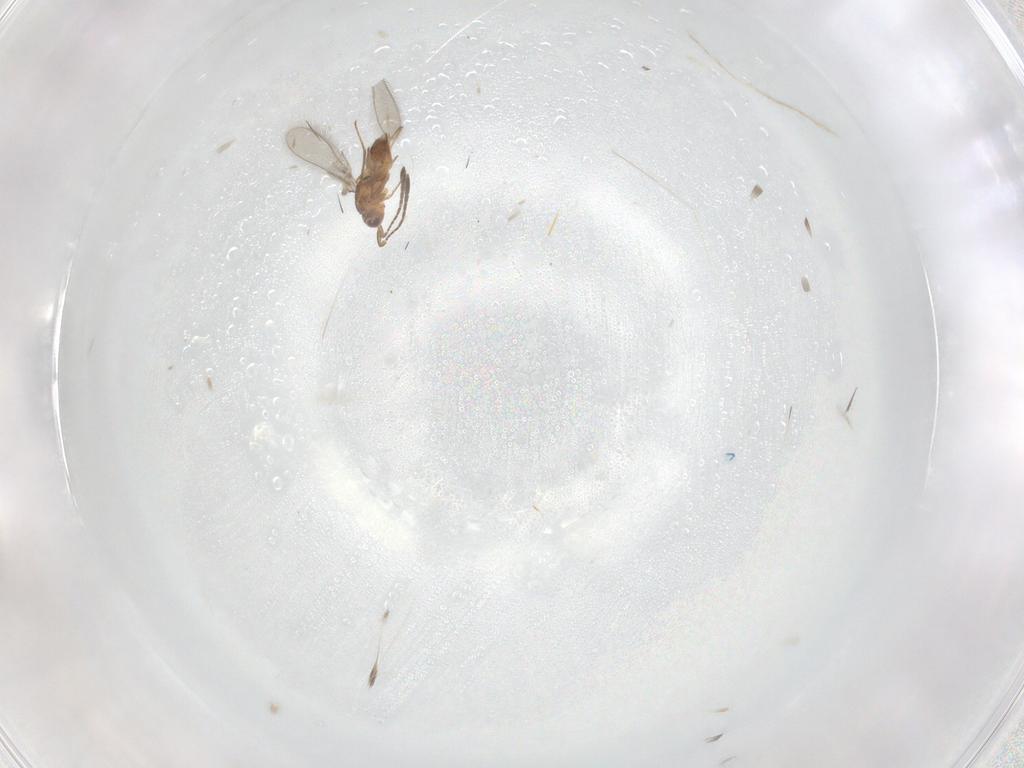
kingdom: Animalia
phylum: Arthropoda
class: Insecta
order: Hymenoptera
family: Mymaridae
